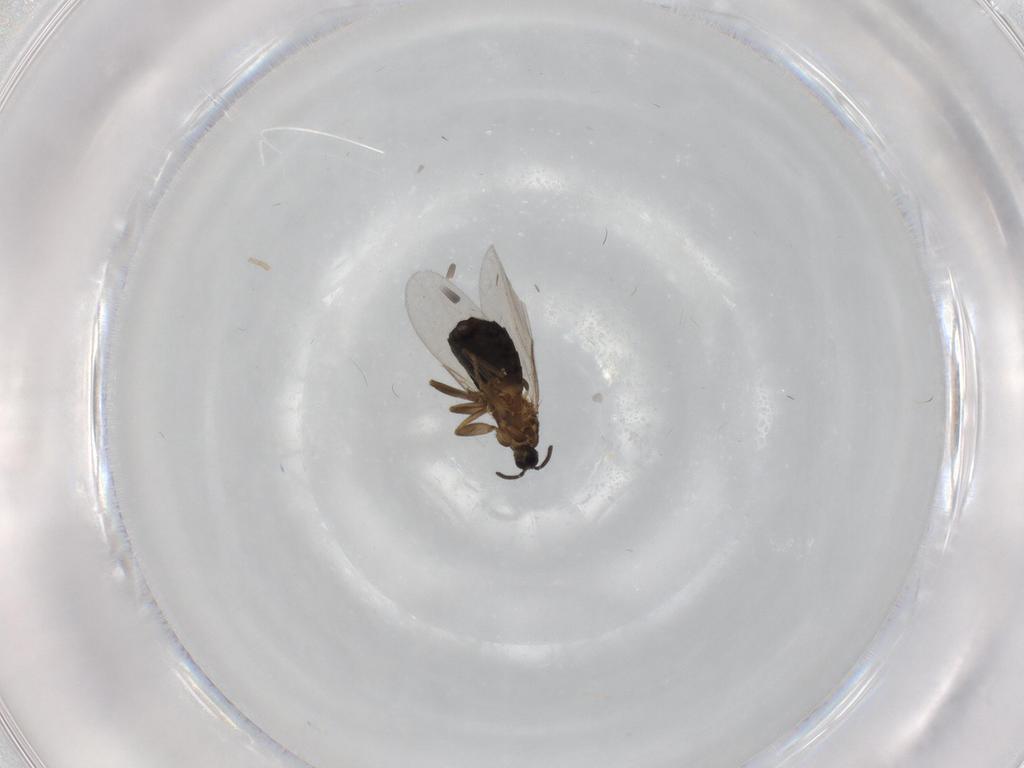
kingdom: Animalia
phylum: Arthropoda
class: Insecta
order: Diptera
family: Scatopsidae
